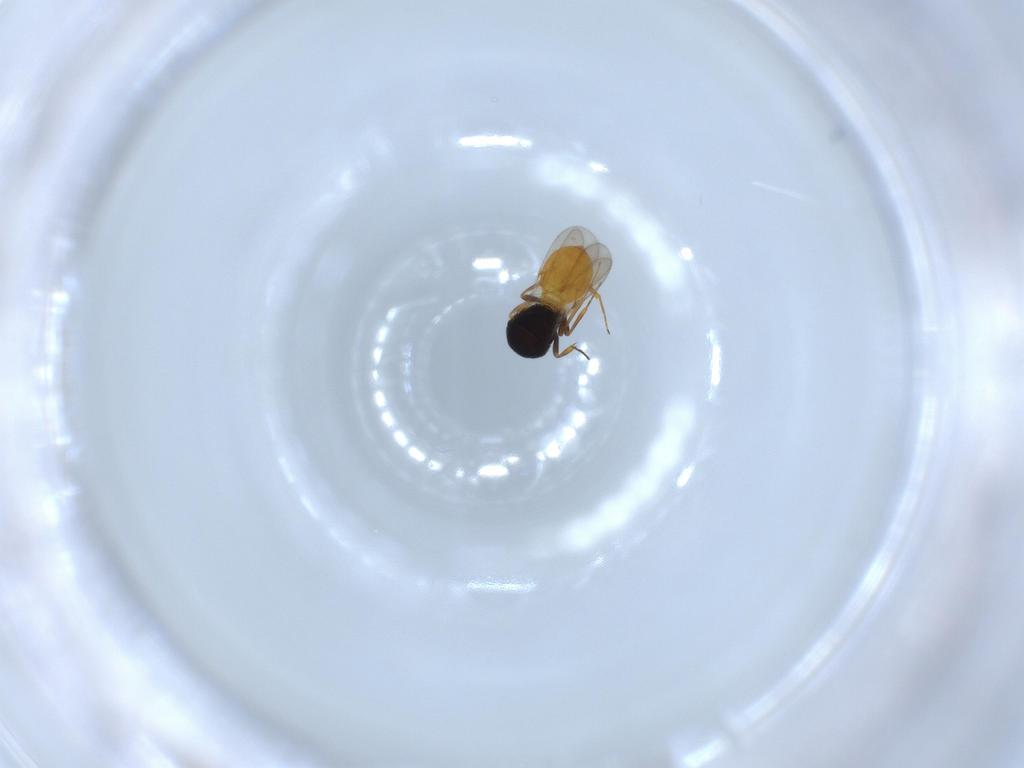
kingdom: Animalia
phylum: Arthropoda
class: Insecta
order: Hymenoptera
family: Scelionidae
